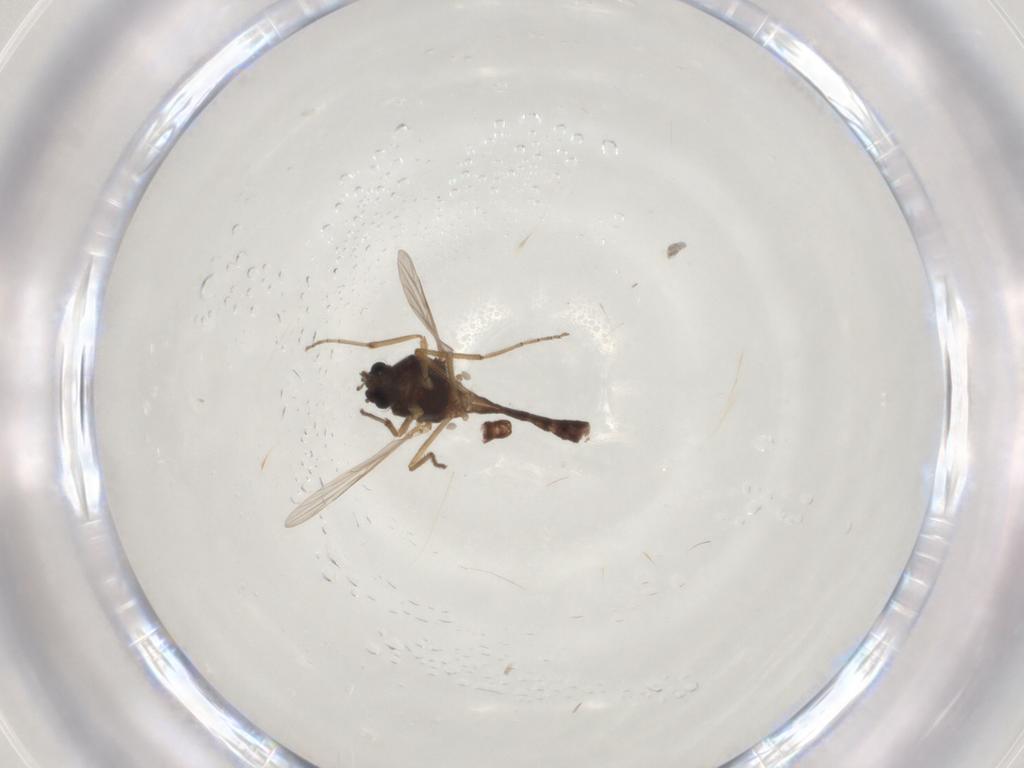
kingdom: Animalia
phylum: Arthropoda
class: Insecta
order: Diptera
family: Ceratopogonidae
